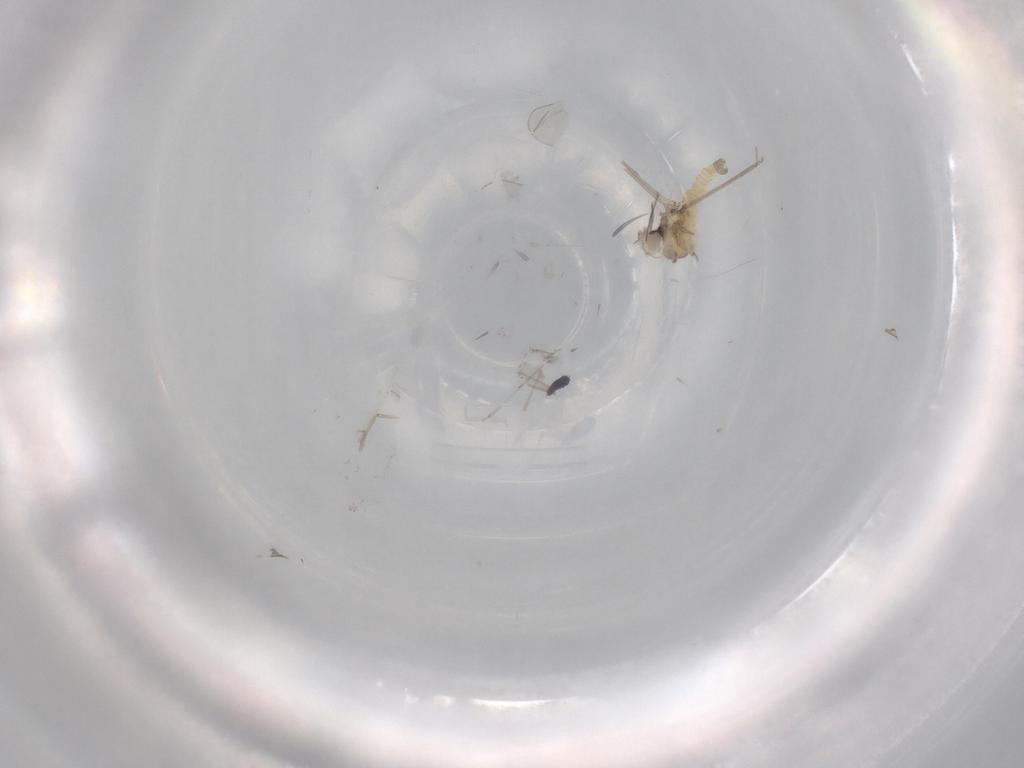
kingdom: Animalia
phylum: Arthropoda
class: Insecta
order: Diptera
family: Cecidomyiidae
